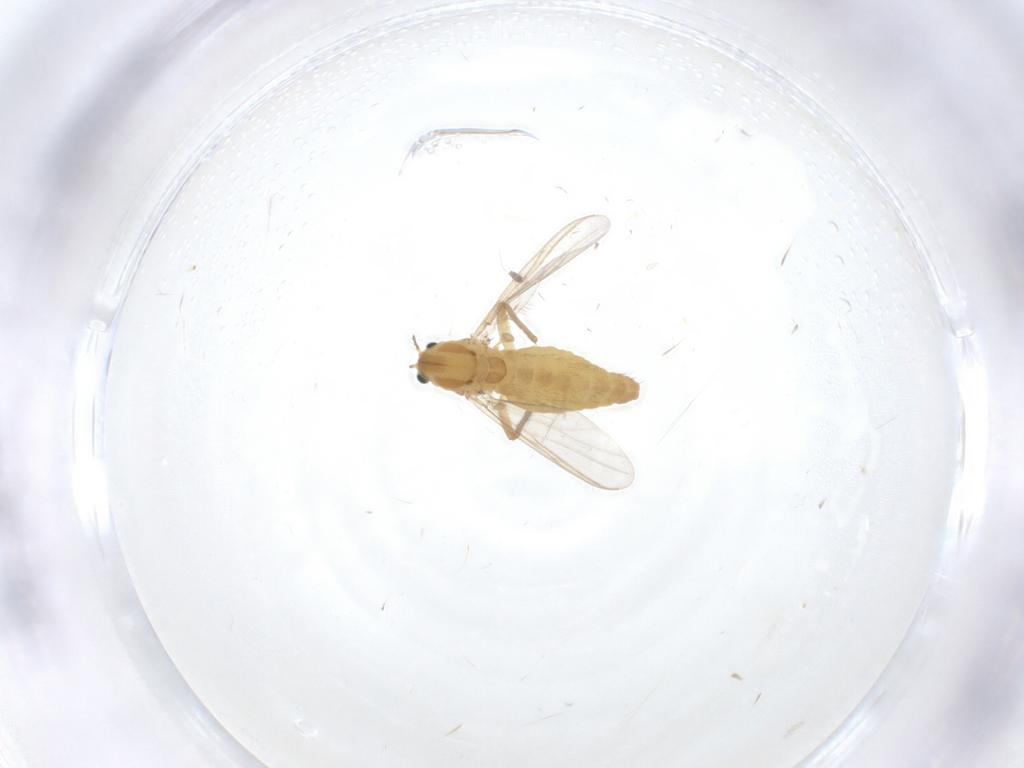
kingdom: Animalia
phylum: Arthropoda
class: Insecta
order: Diptera
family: Chironomidae
